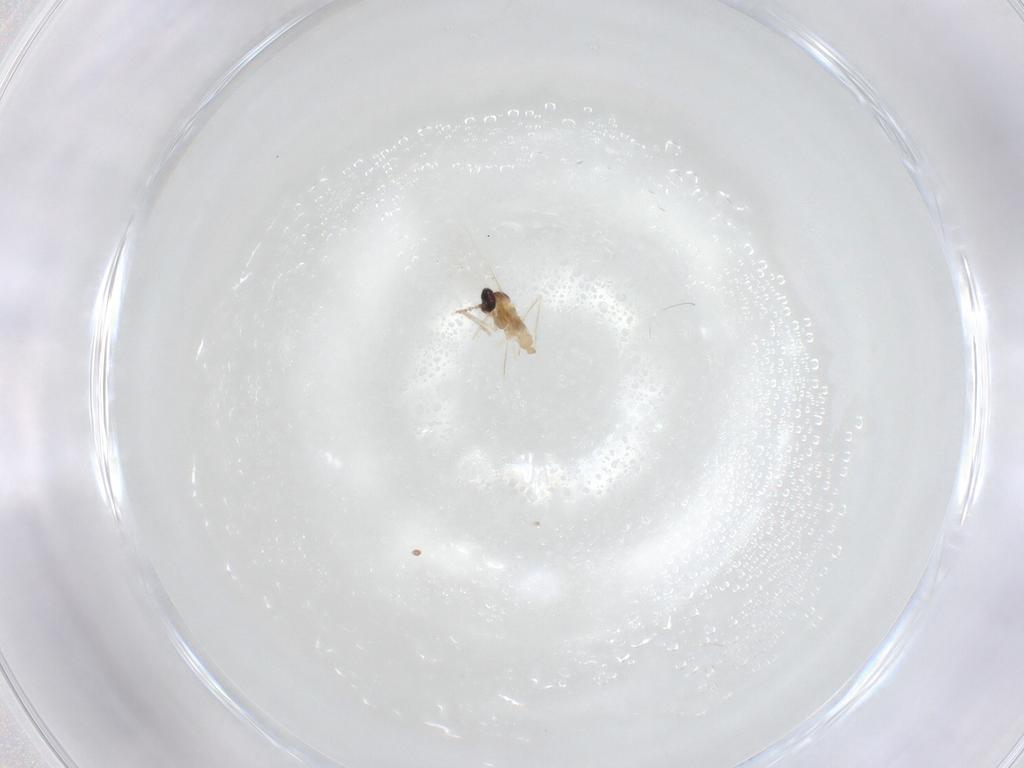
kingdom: Animalia
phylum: Arthropoda
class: Insecta
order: Diptera
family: Cecidomyiidae
